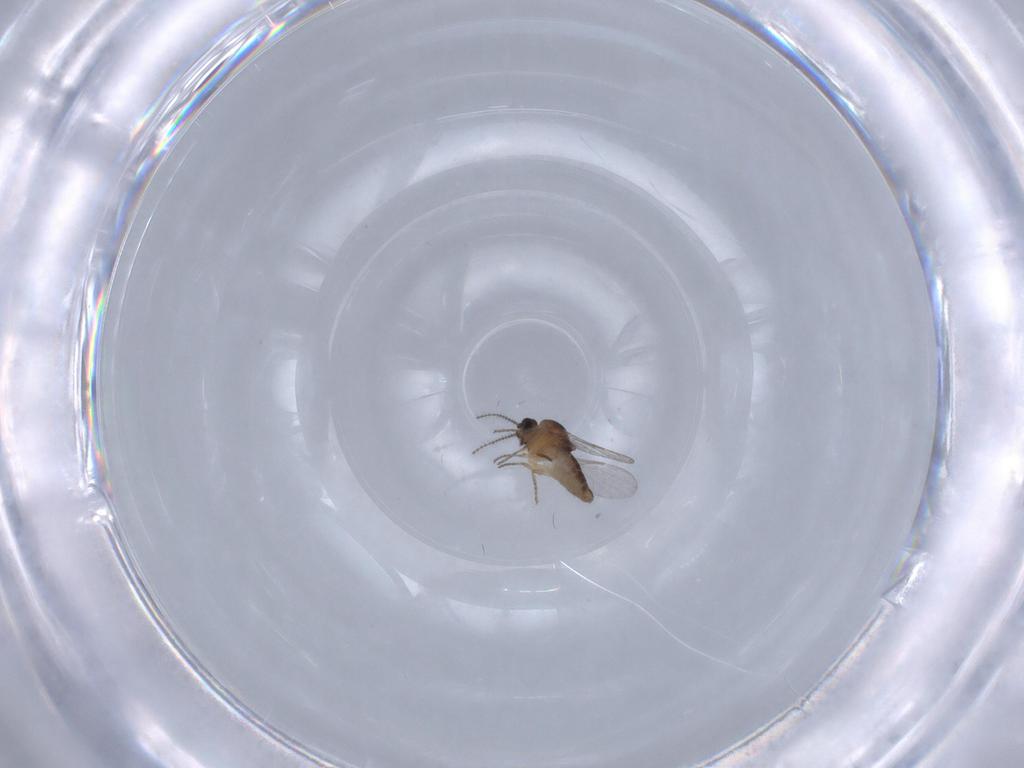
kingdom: Animalia
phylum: Arthropoda
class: Insecta
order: Diptera
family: Ceratopogonidae
